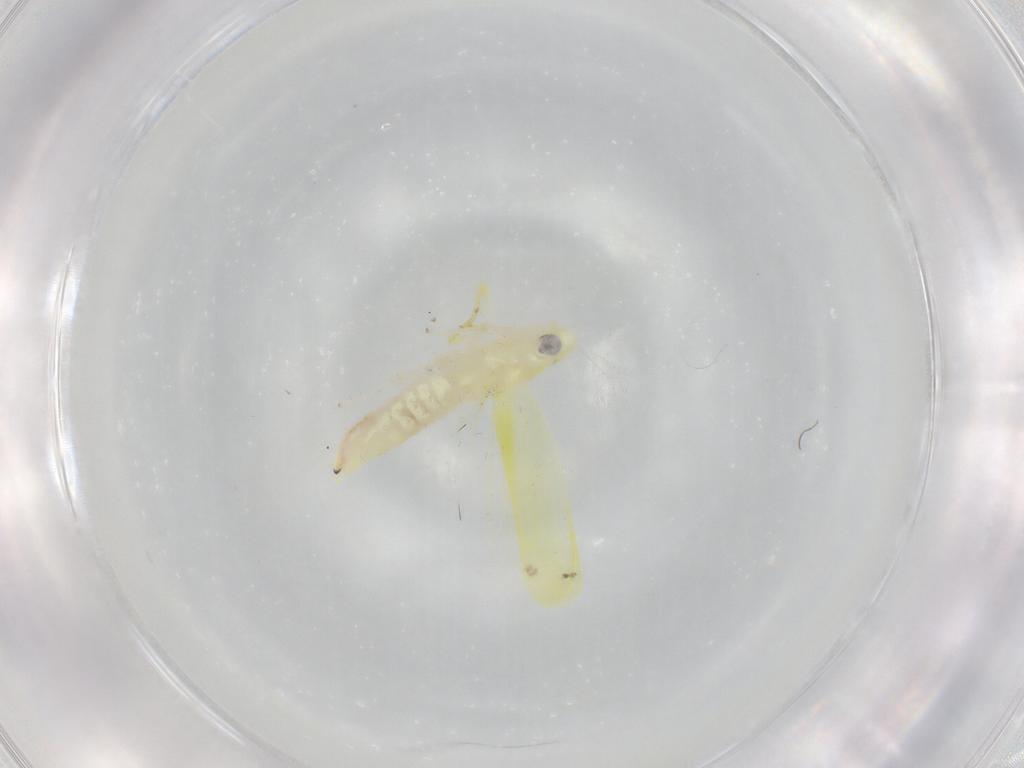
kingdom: Animalia
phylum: Arthropoda
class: Insecta
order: Hemiptera
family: Cicadellidae
